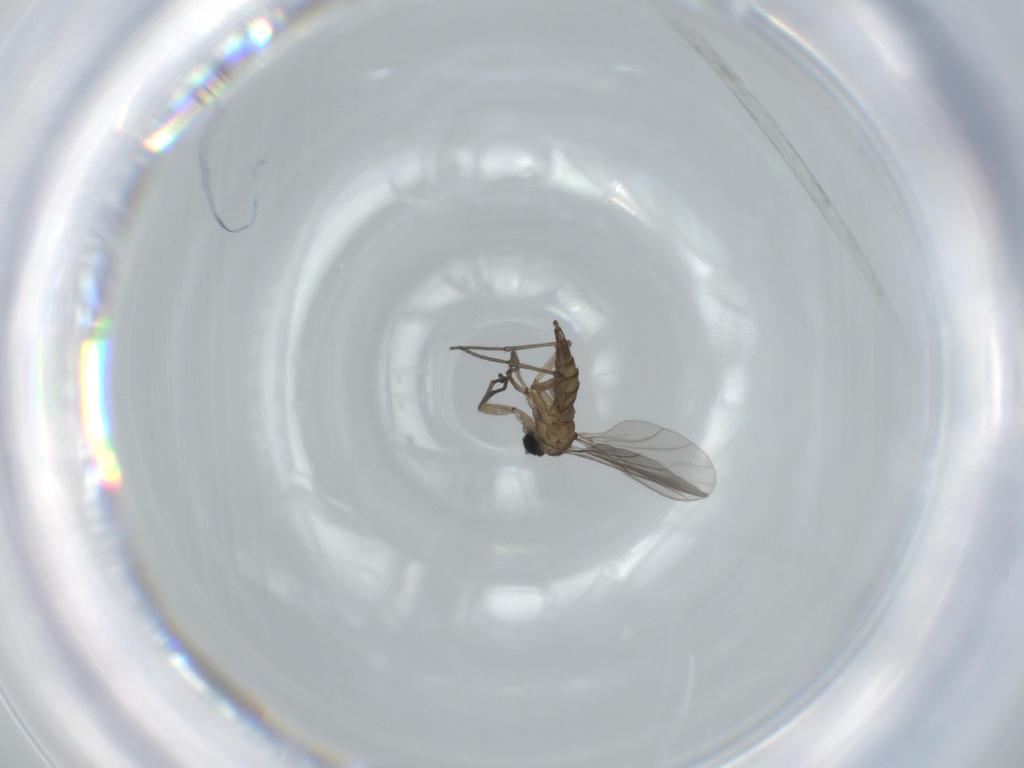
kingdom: Animalia
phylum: Arthropoda
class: Insecta
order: Diptera
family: Sciaridae
